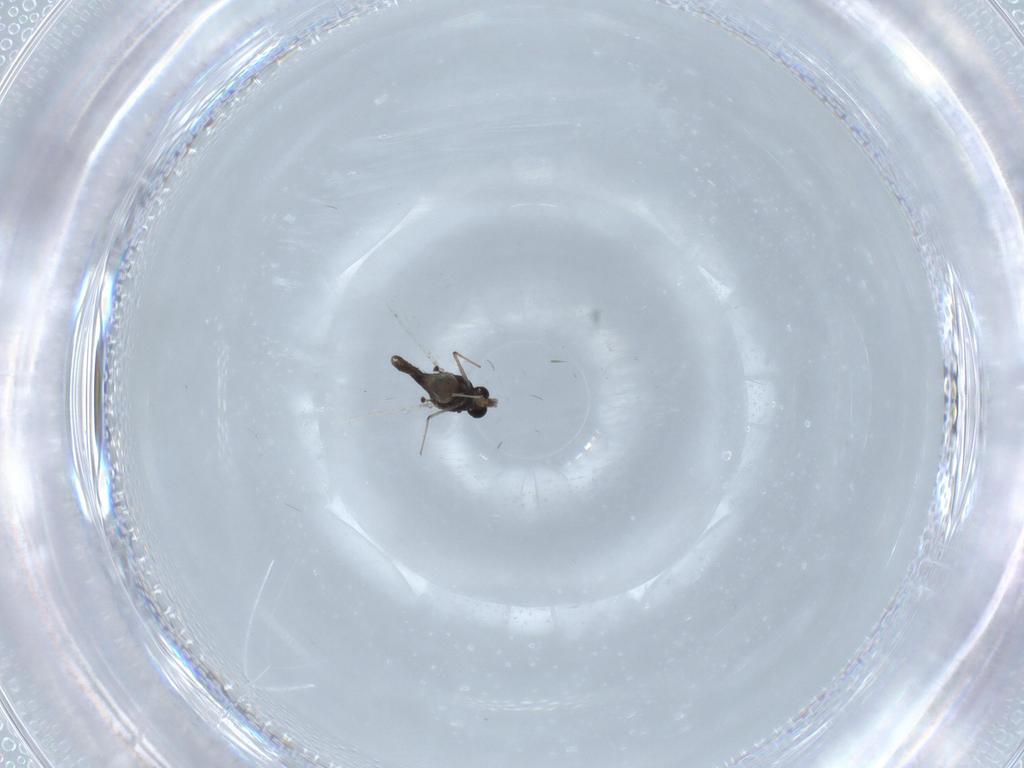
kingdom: Animalia
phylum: Arthropoda
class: Insecta
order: Diptera
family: Chironomidae
